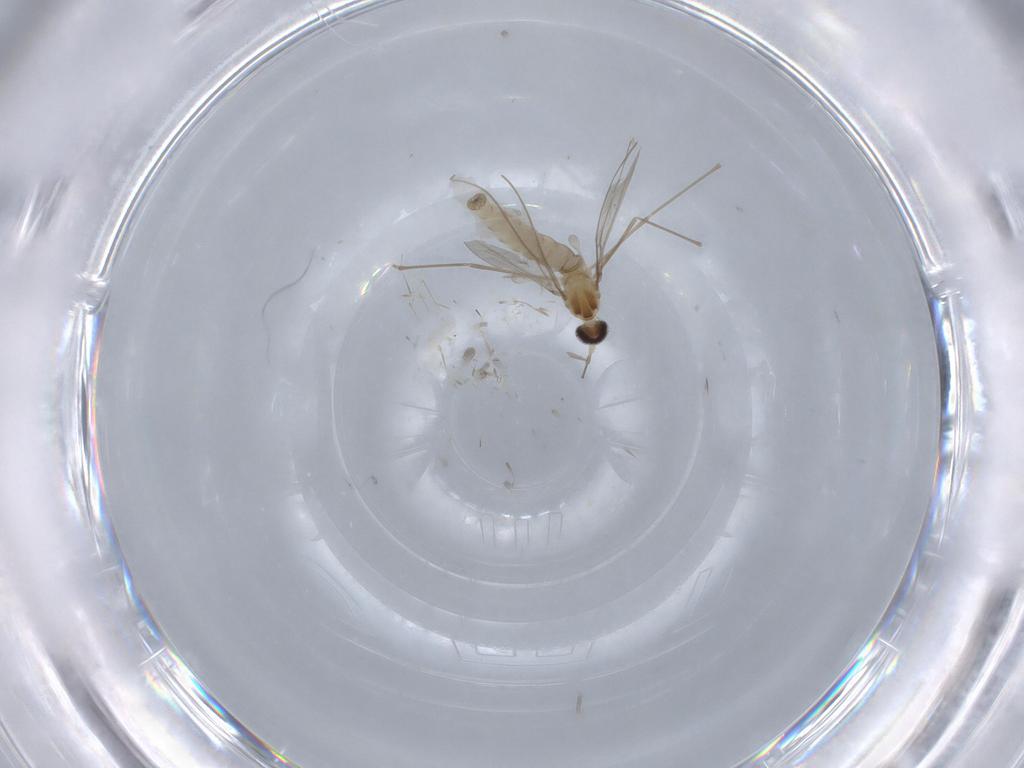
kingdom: Animalia
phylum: Arthropoda
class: Insecta
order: Diptera
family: Cecidomyiidae
